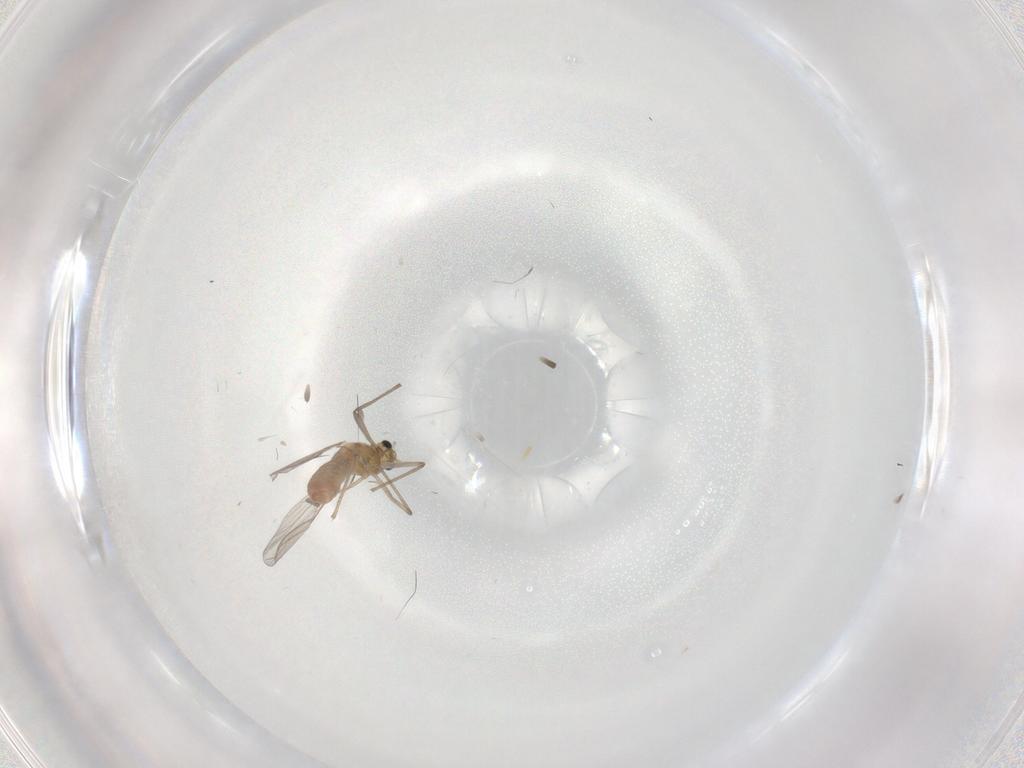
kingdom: Animalia
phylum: Arthropoda
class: Insecta
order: Diptera
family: Chironomidae
